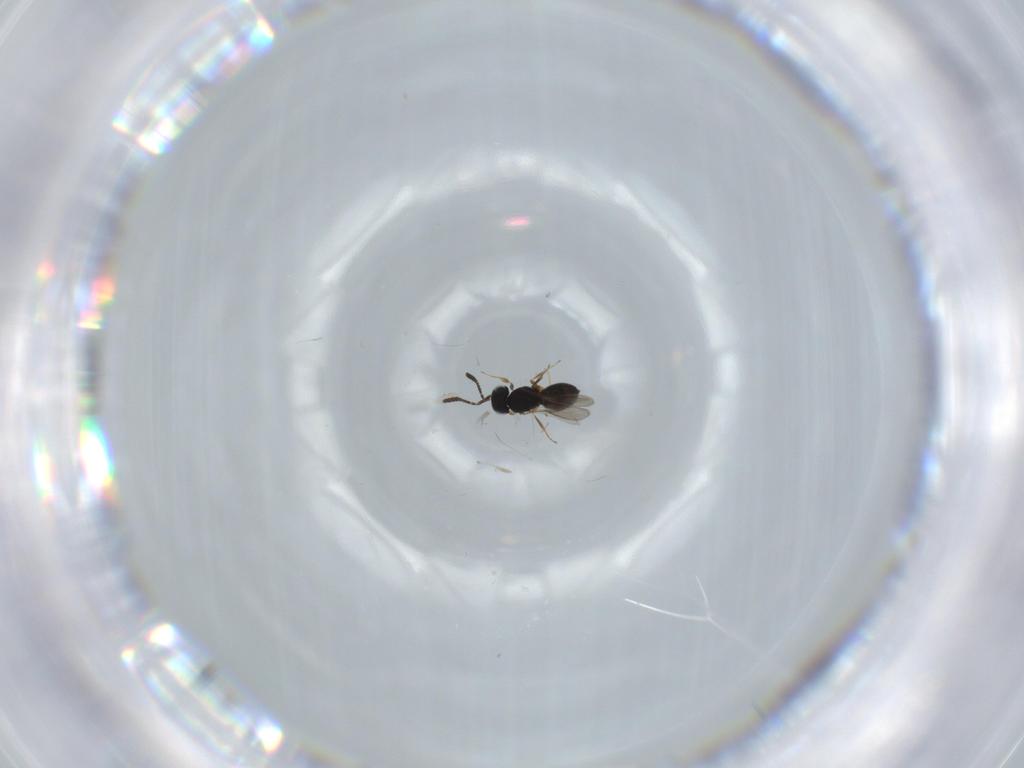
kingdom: Animalia
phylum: Arthropoda
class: Insecta
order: Hymenoptera
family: Scelionidae
